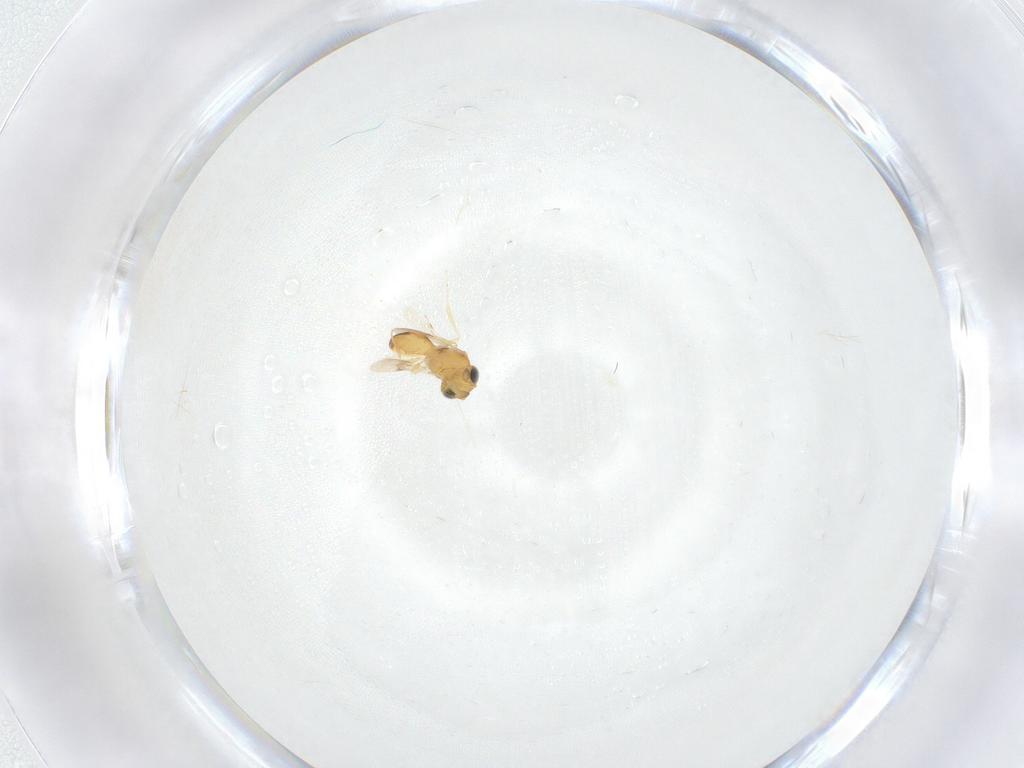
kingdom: Animalia
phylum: Arthropoda
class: Insecta
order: Hymenoptera
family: Scelionidae
